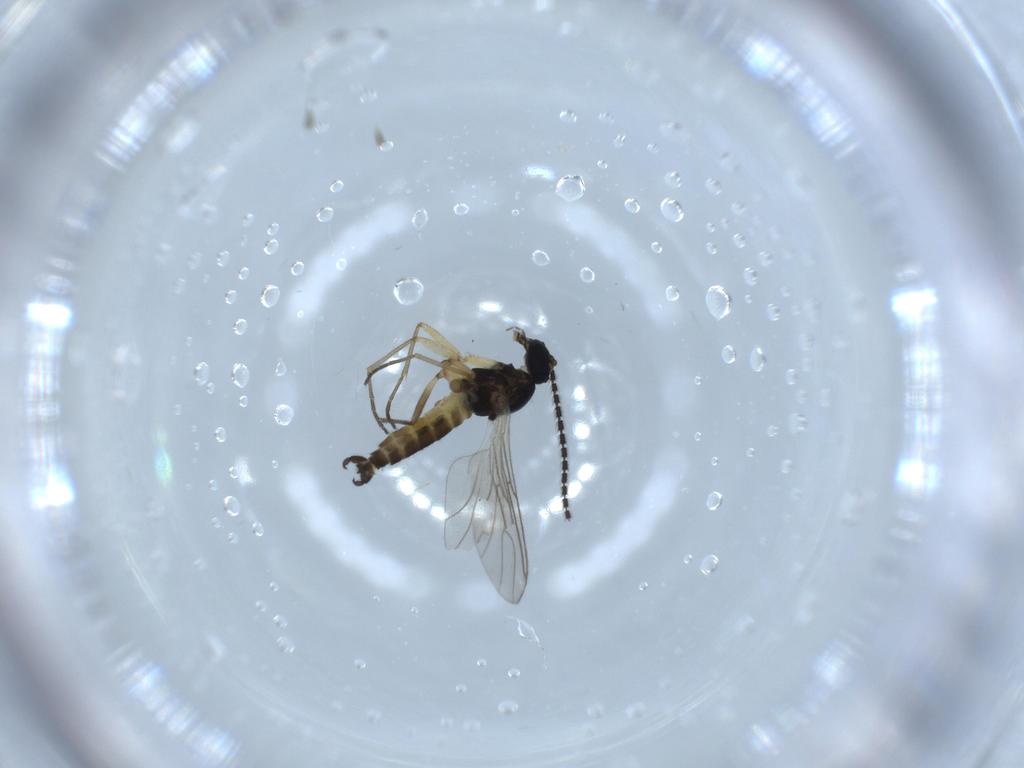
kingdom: Animalia
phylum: Arthropoda
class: Insecta
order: Diptera
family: Sciaridae
